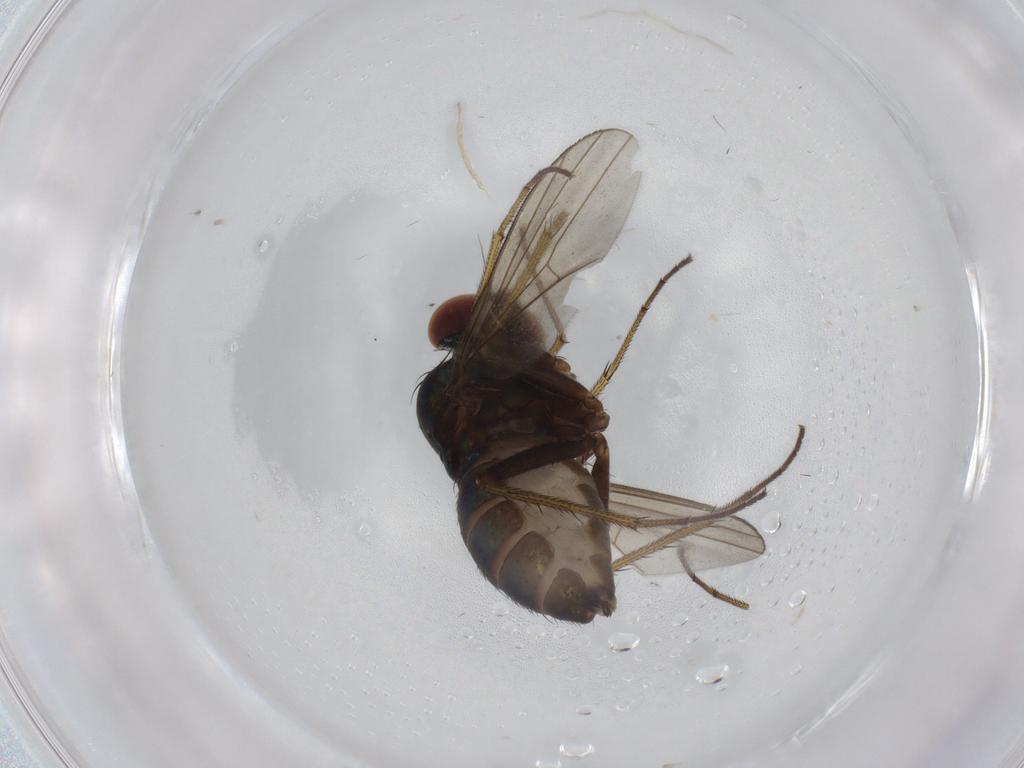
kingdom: Animalia
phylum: Arthropoda
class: Insecta
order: Diptera
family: Dolichopodidae
